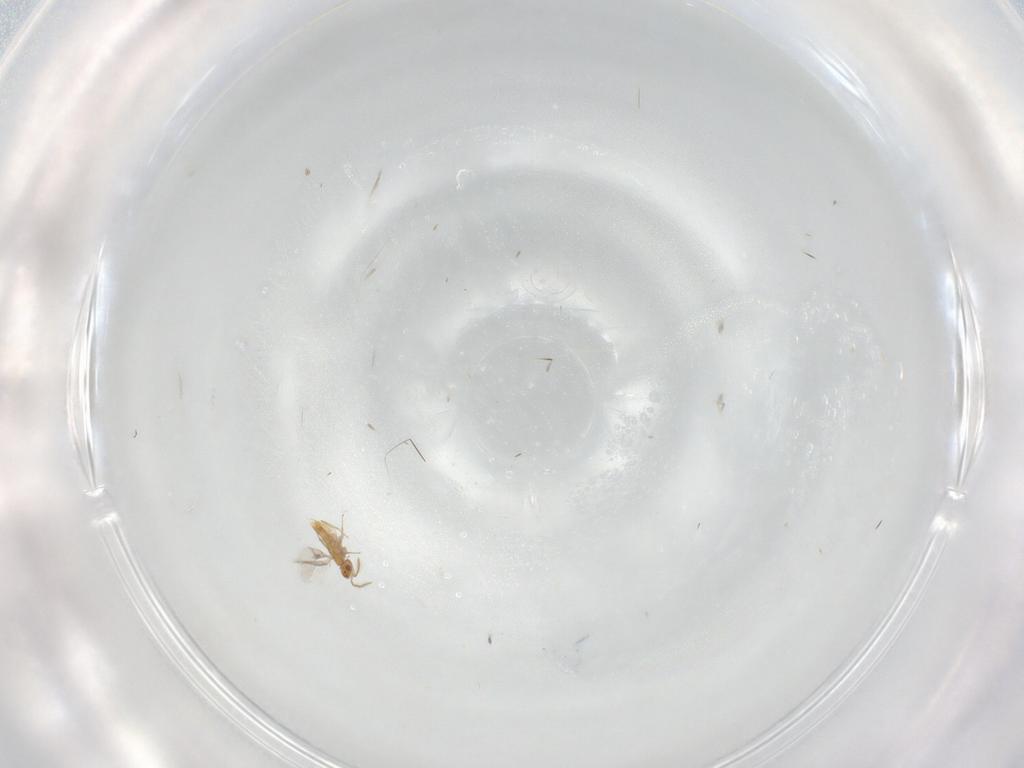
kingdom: Animalia
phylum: Arthropoda
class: Insecta
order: Hymenoptera
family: Aphelinidae
